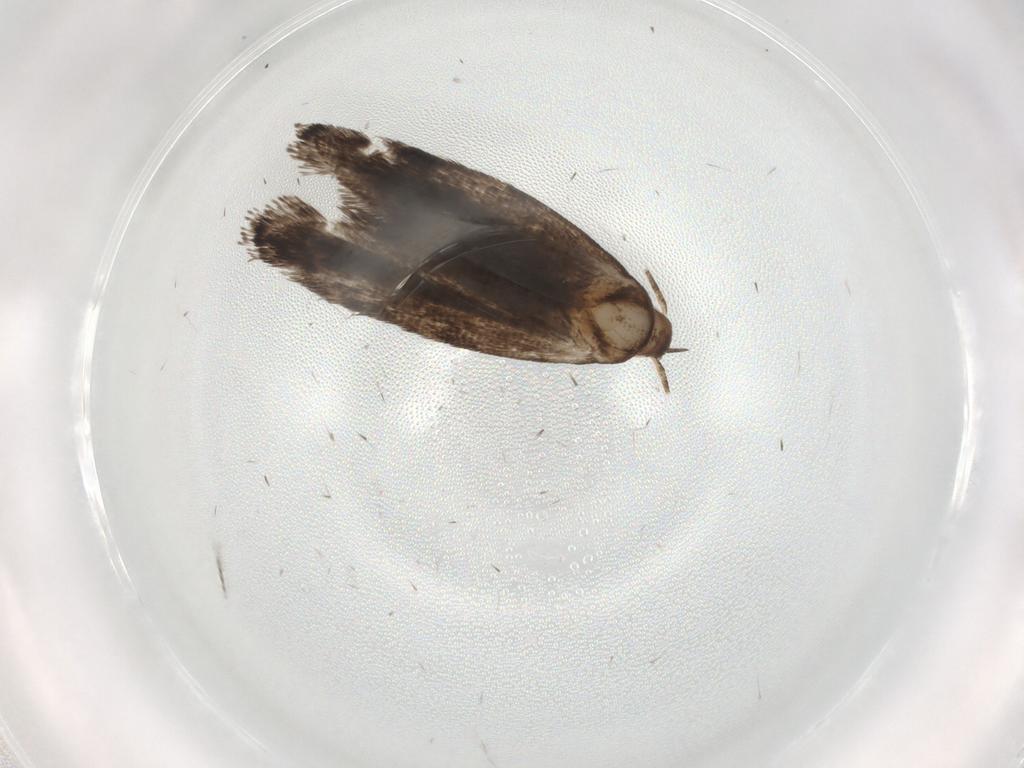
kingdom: Animalia
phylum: Arthropoda
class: Insecta
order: Lepidoptera
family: Gelechiidae
